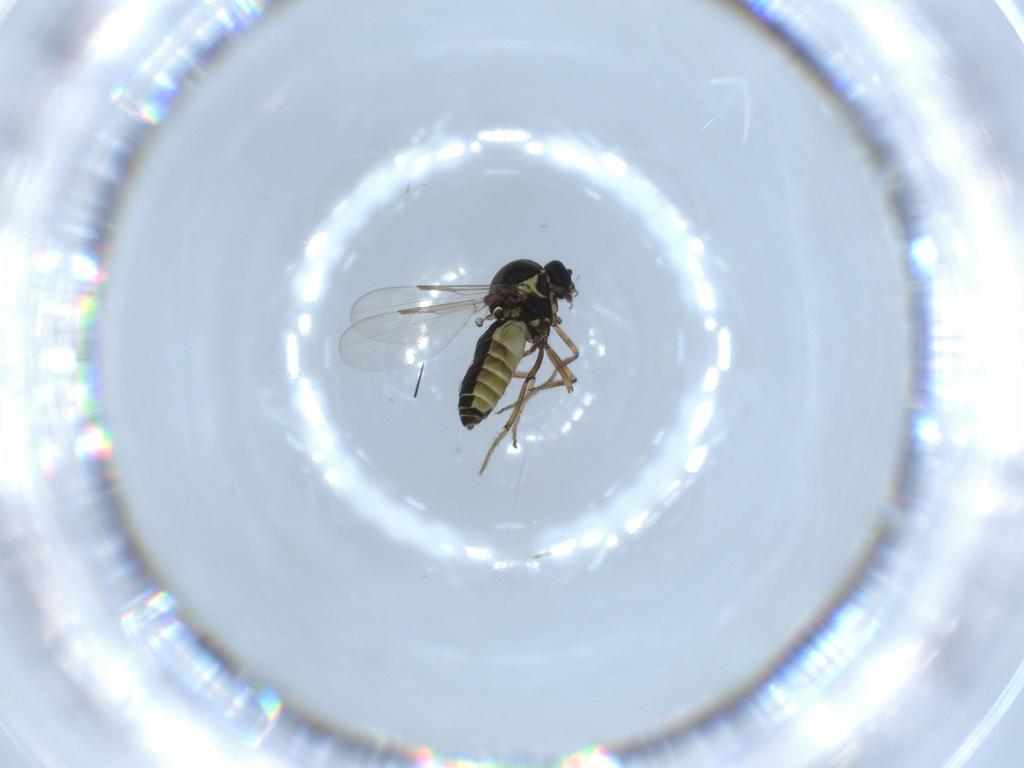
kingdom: Animalia
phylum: Arthropoda
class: Insecta
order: Diptera
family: Ceratopogonidae
